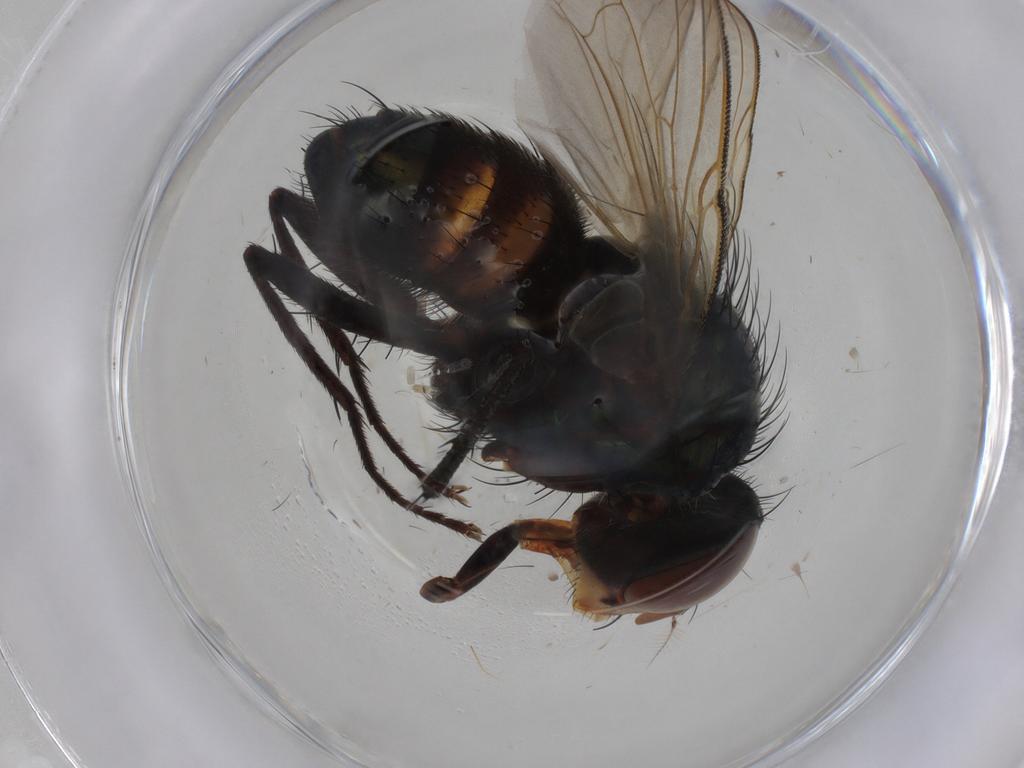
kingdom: Animalia
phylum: Arthropoda
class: Insecta
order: Diptera
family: Calliphoridae
